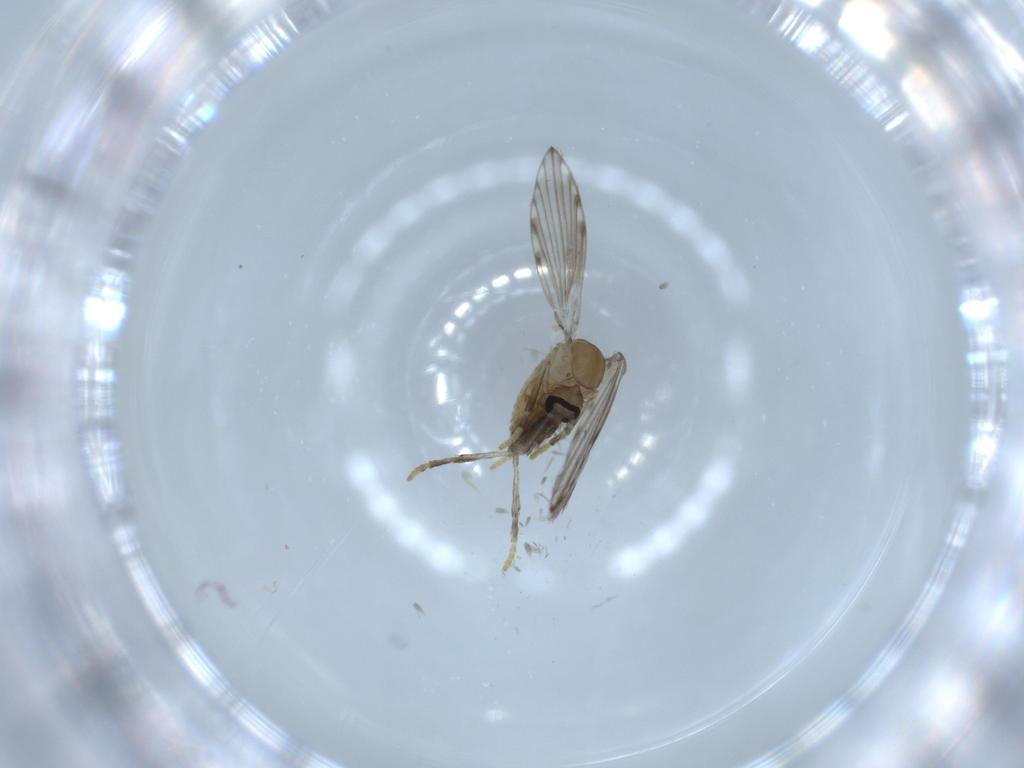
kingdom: Animalia
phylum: Arthropoda
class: Insecta
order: Diptera
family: Psychodidae
